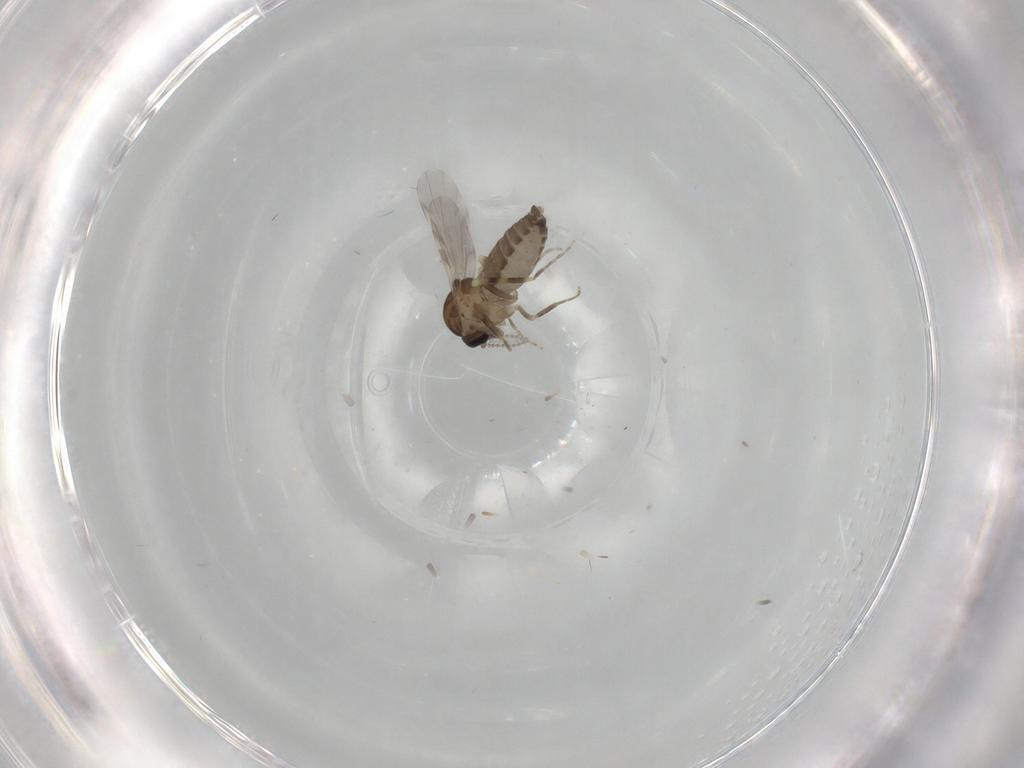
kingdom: Animalia
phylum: Arthropoda
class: Insecta
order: Diptera
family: Ceratopogonidae
